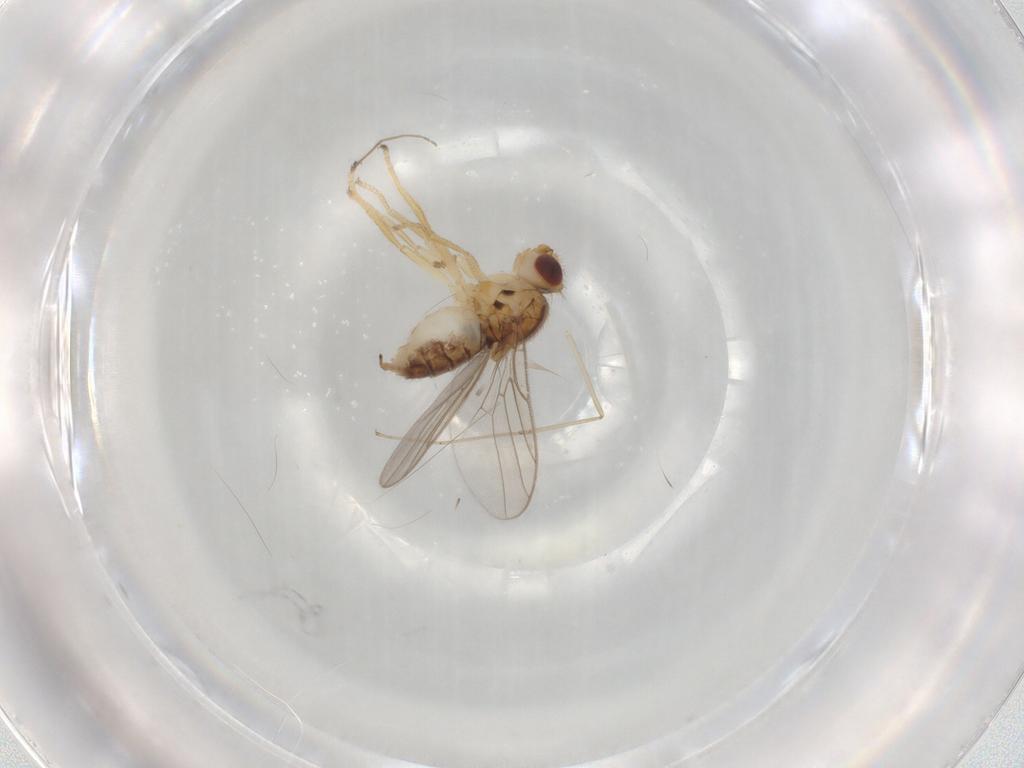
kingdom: Animalia
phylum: Arthropoda
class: Insecta
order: Diptera
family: Chloropidae
